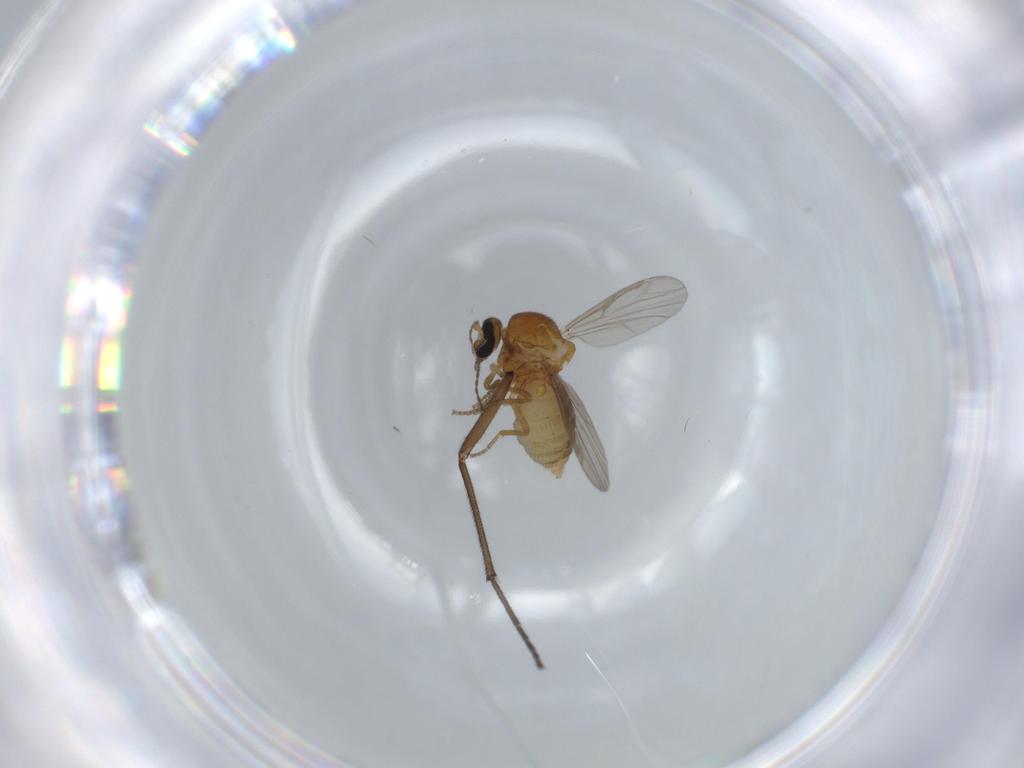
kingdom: Animalia
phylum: Arthropoda
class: Insecta
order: Diptera
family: Ceratopogonidae
